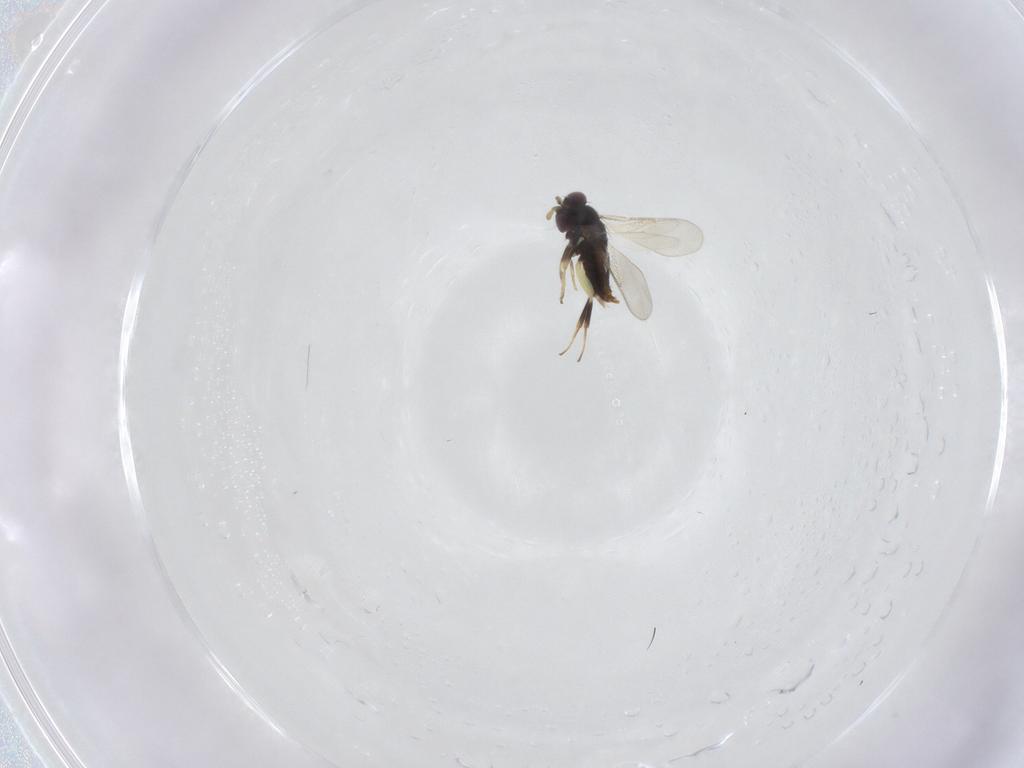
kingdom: Animalia
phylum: Arthropoda
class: Insecta
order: Hymenoptera
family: Aphelinidae
